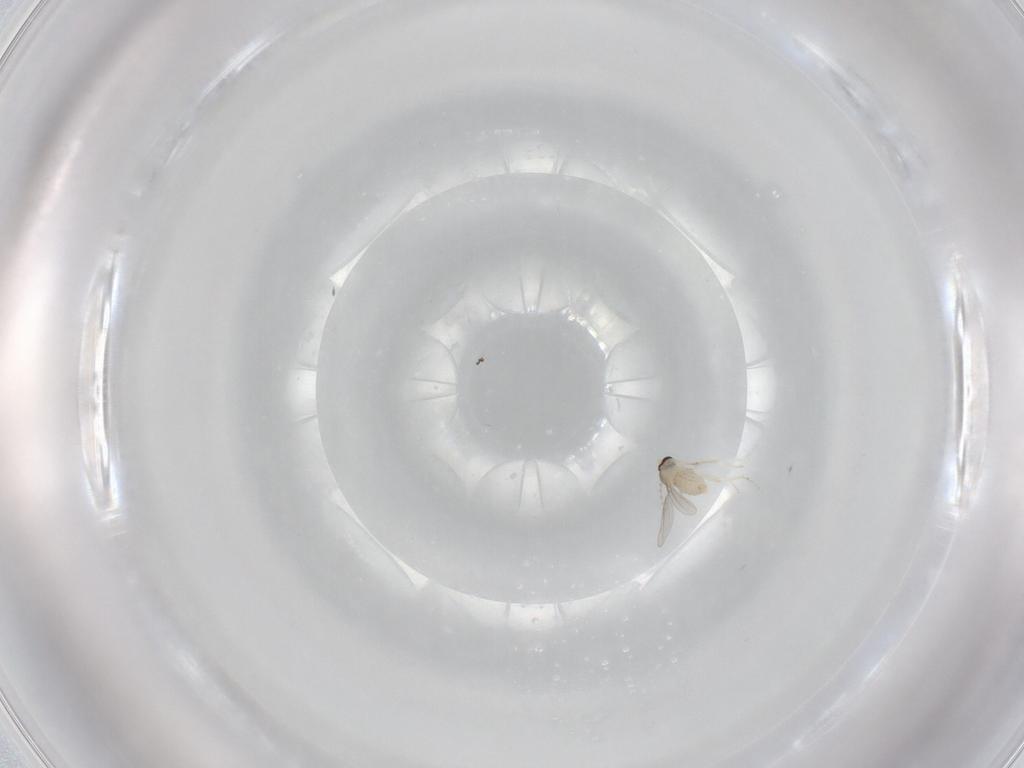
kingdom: Animalia
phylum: Arthropoda
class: Insecta
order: Diptera
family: Cecidomyiidae
